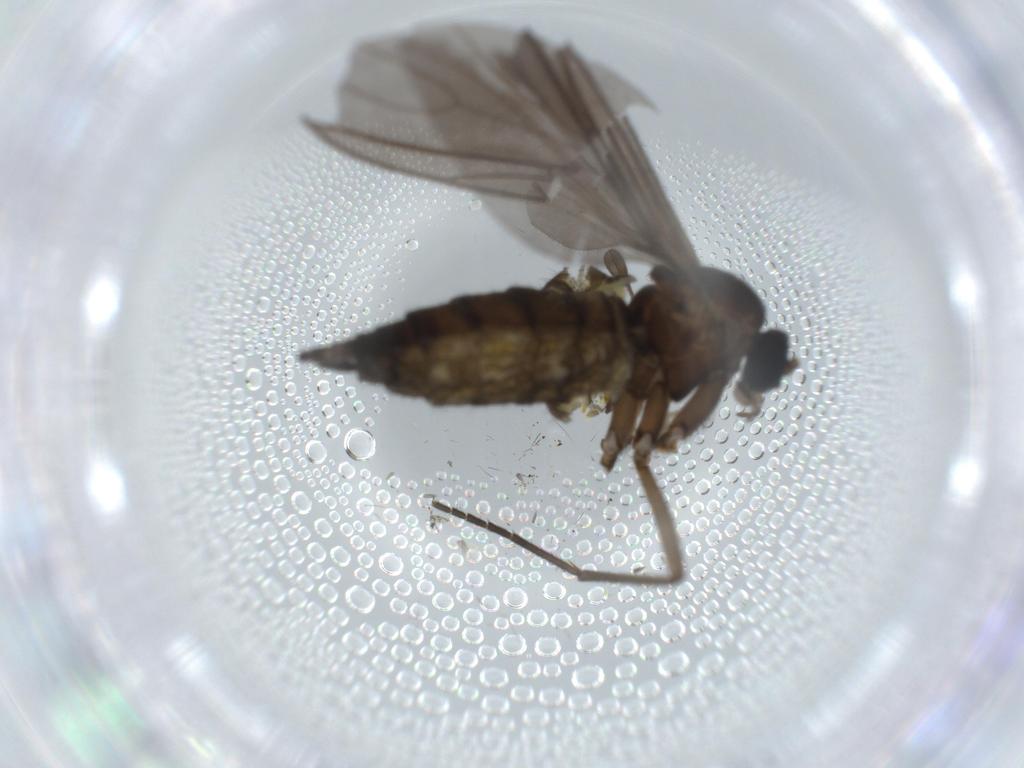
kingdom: Animalia
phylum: Arthropoda
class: Insecta
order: Diptera
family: Sciaridae
